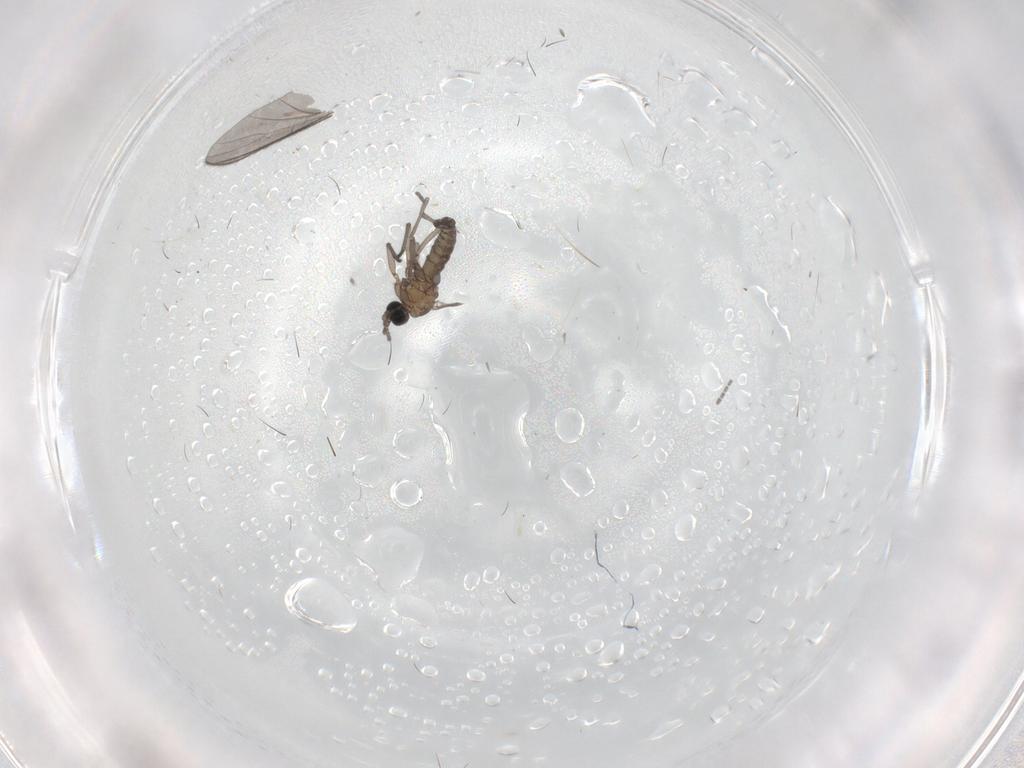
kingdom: Animalia
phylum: Arthropoda
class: Insecta
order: Diptera
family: Sciaridae
